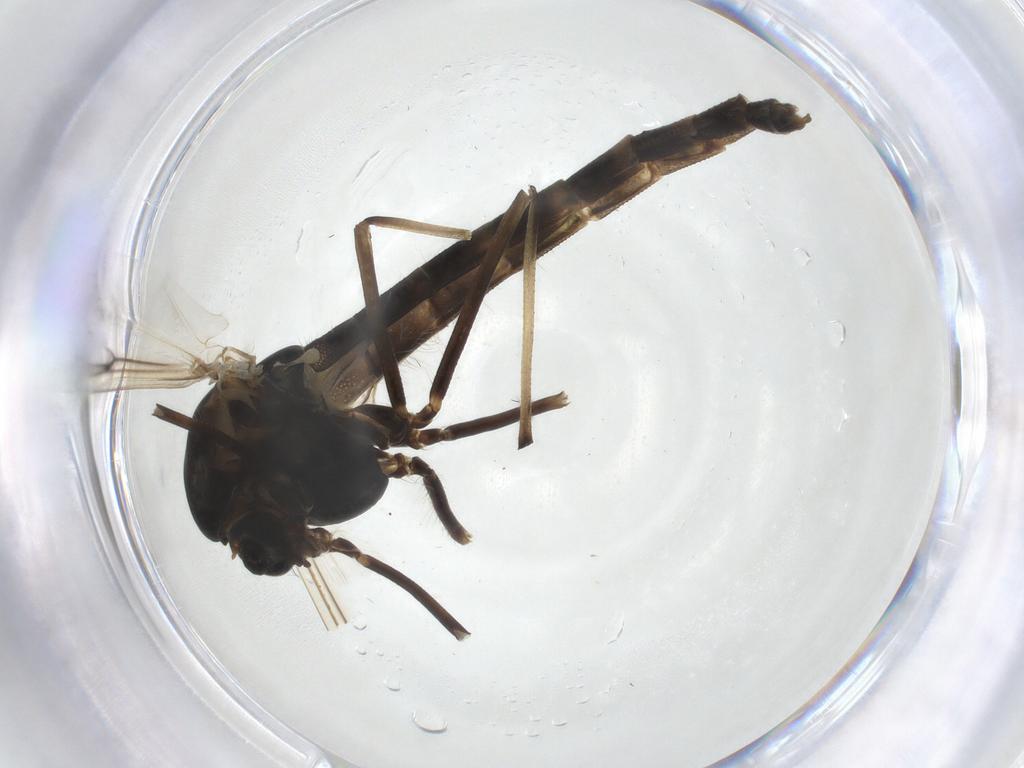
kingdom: Animalia
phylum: Arthropoda
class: Insecta
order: Diptera
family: Chironomidae
